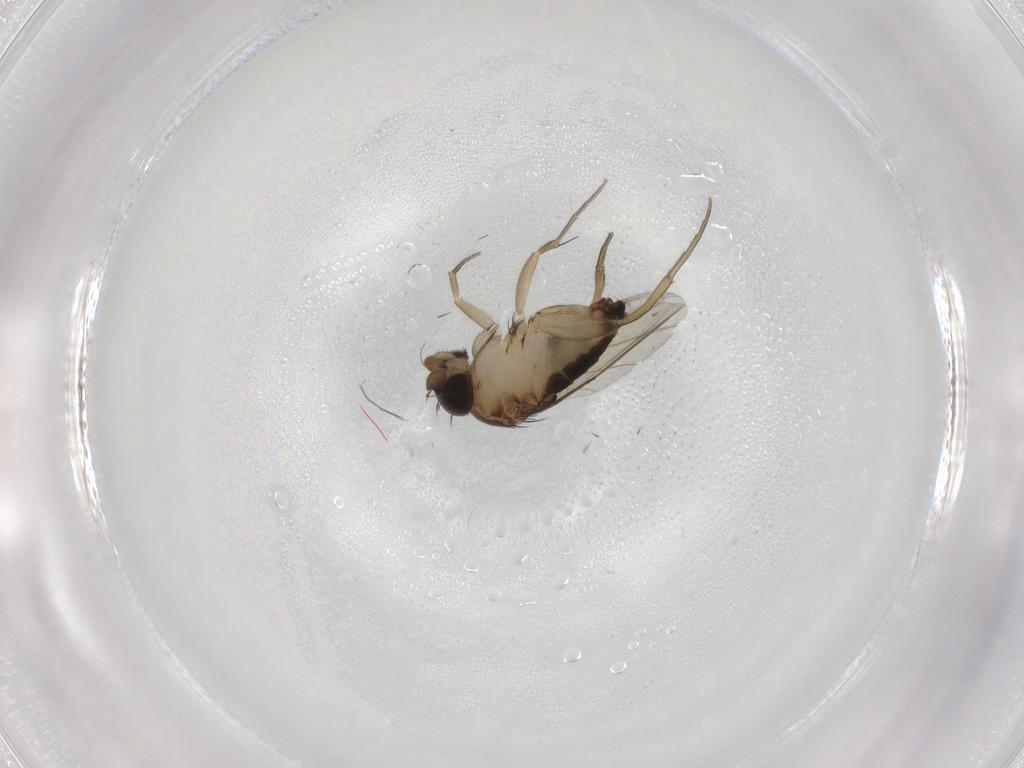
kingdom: Animalia
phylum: Arthropoda
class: Insecta
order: Diptera
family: Phoridae
